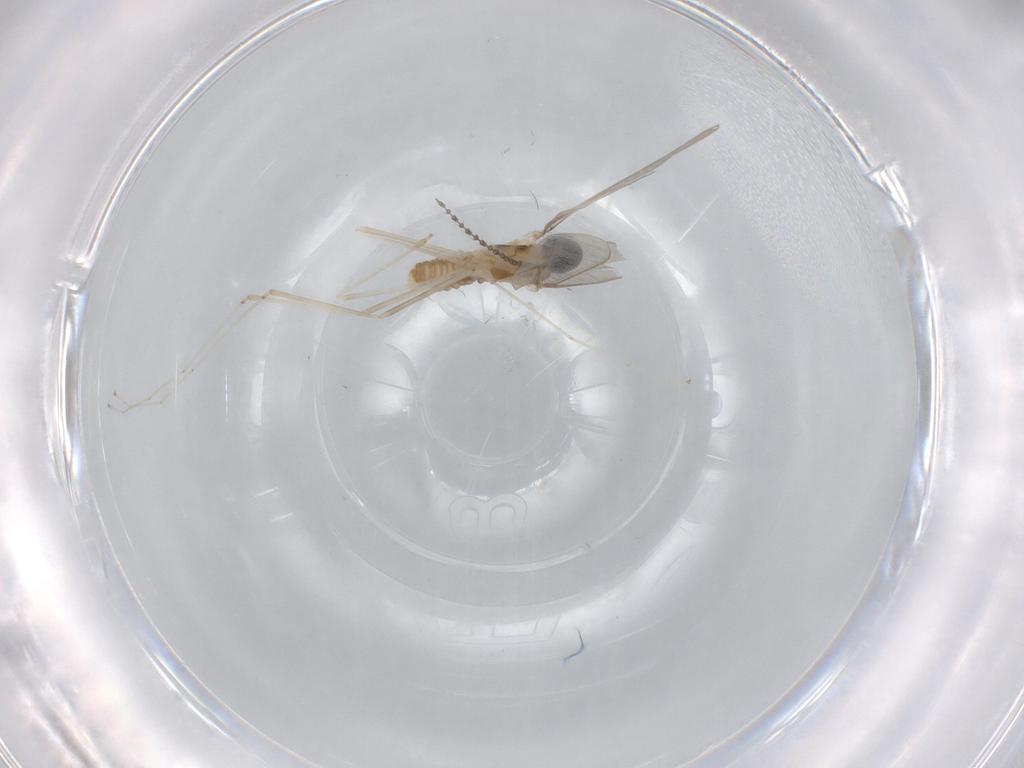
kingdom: Animalia
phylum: Arthropoda
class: Insecta
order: Diptera
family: Cecidomyiidae
